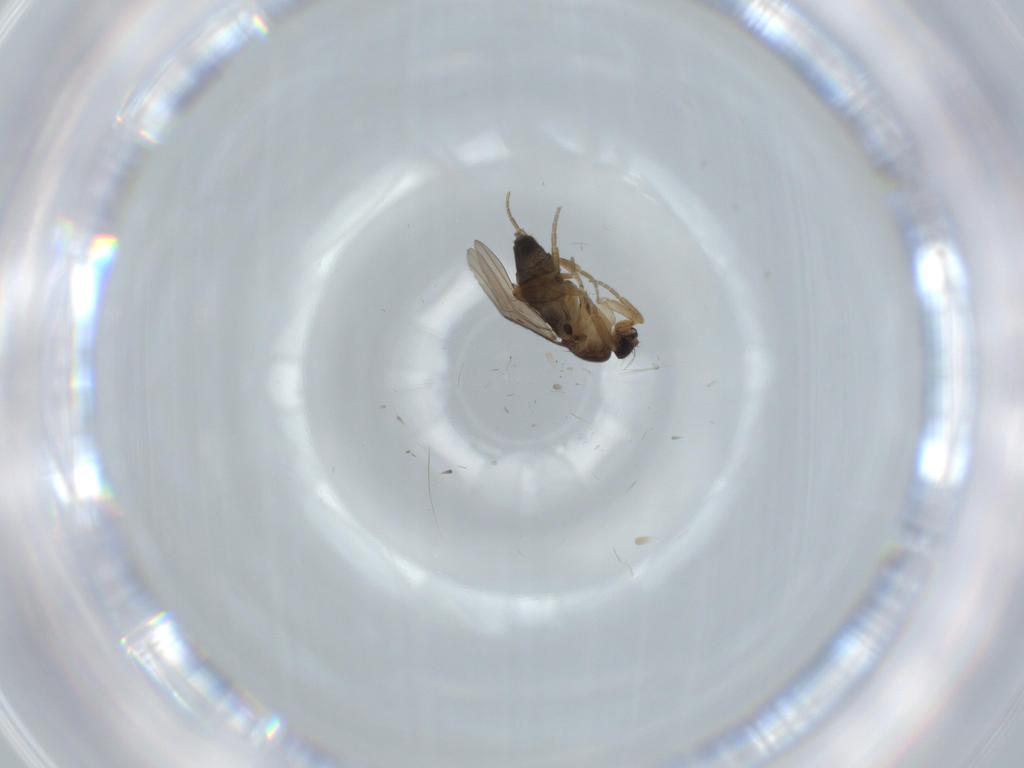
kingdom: Animalia
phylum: Arthropoda
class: Insecta
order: Diptera
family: Phoridae
